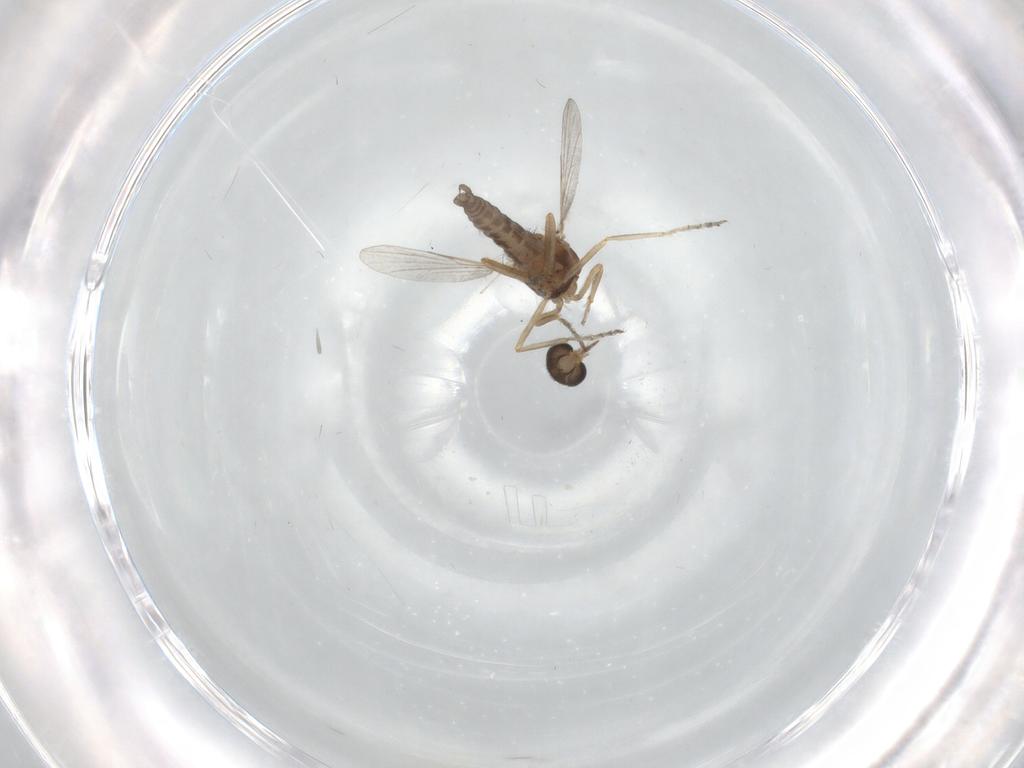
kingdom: Animalia
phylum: Arthropoda
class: Insecta
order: Diptera
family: Ceratopogonidae
